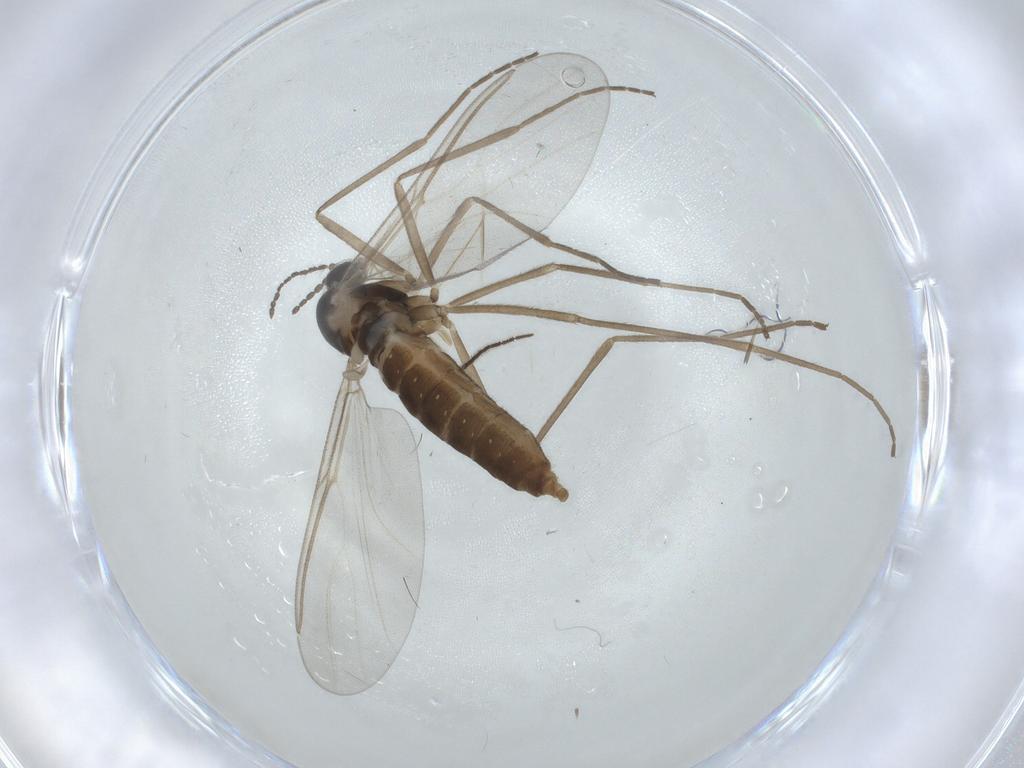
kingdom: Animalia
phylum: Arthropoda
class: Insecta
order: Diptera
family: Cecidomyiidae
